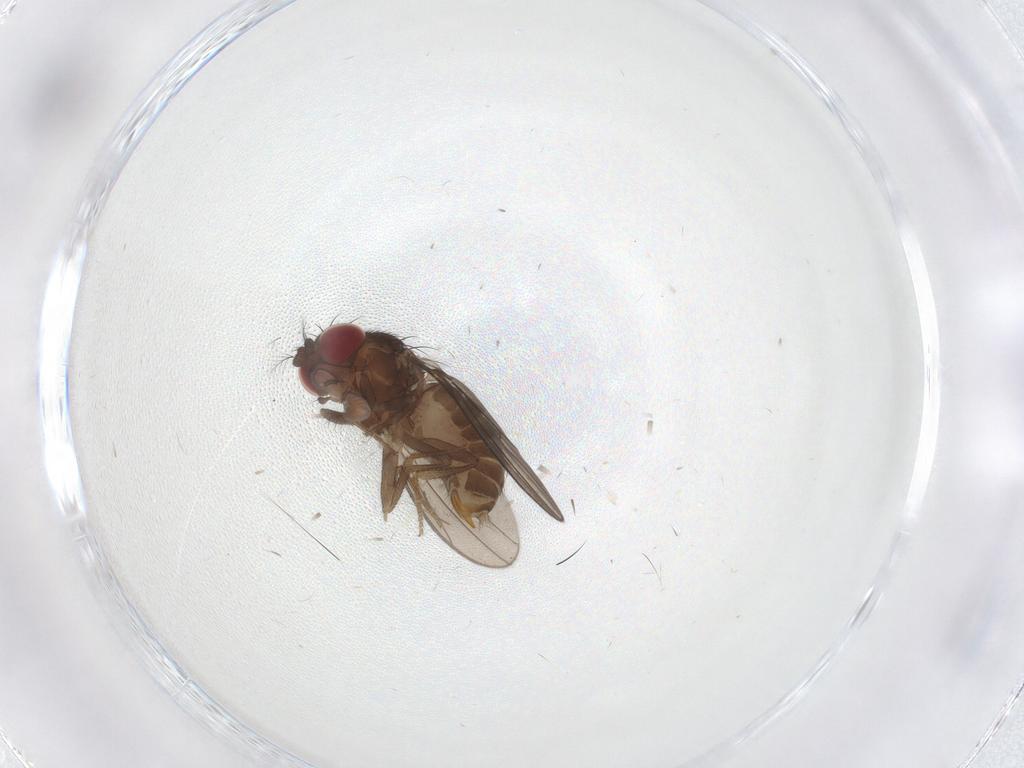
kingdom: Animalia
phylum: Arthropoda
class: Insecta
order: Diptera
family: Drosophilidae
